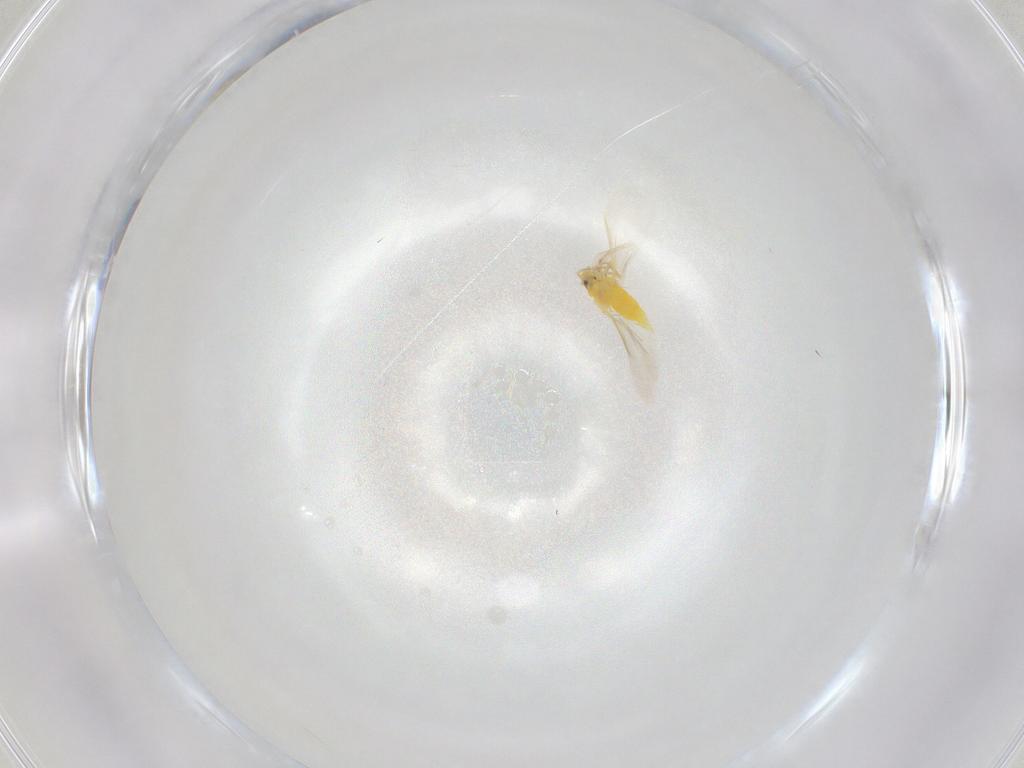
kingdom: Animalia
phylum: Arthropoda
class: Insecta
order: Hemiptera
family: Aleyrodidae
